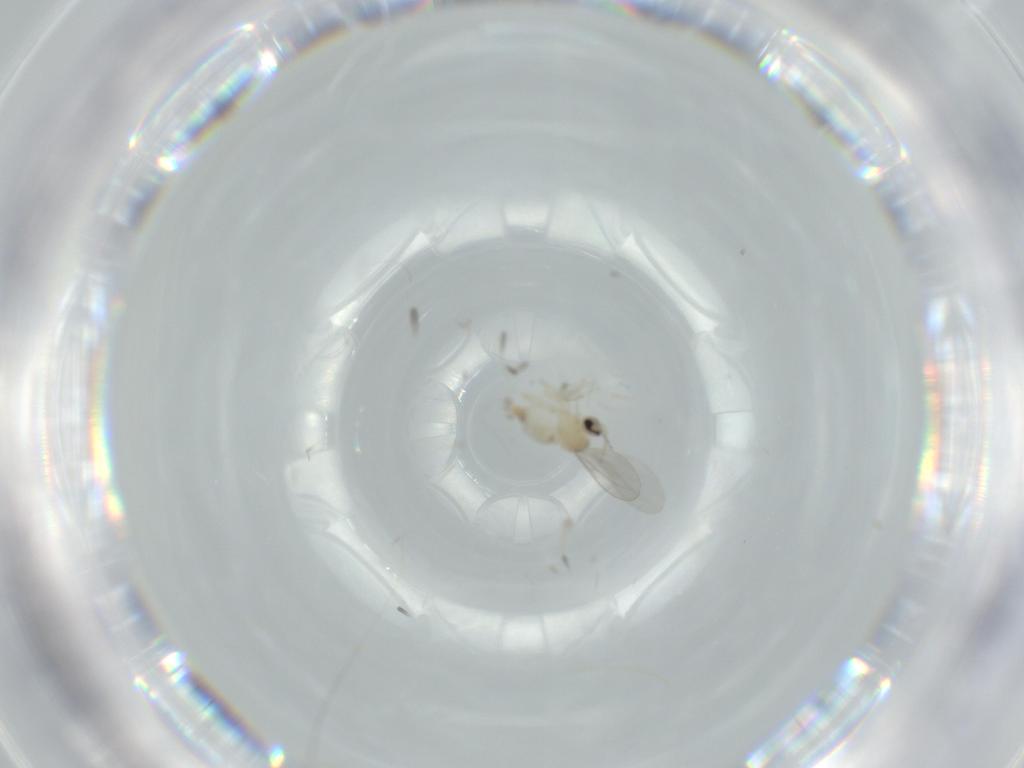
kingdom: Animalia
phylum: Arthropoda
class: Insecta
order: Diptera
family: Cecidomyiidae
